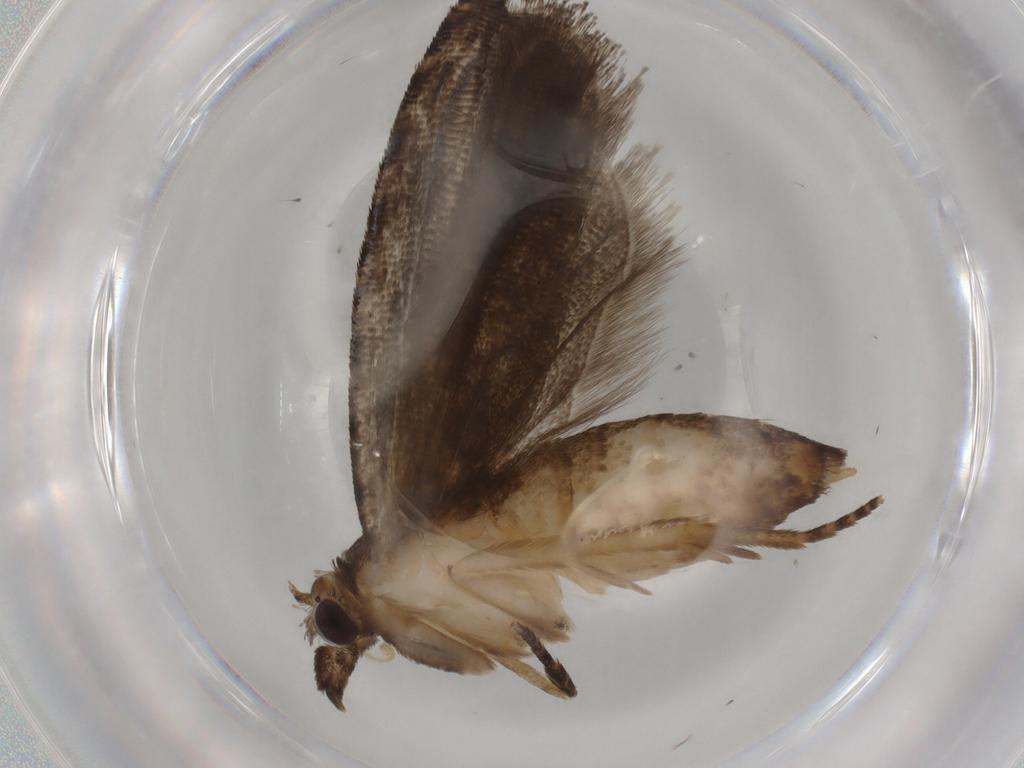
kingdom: Animalia
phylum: Arthropoda
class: Insecta
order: Lepidoptera
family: Tortricidae
